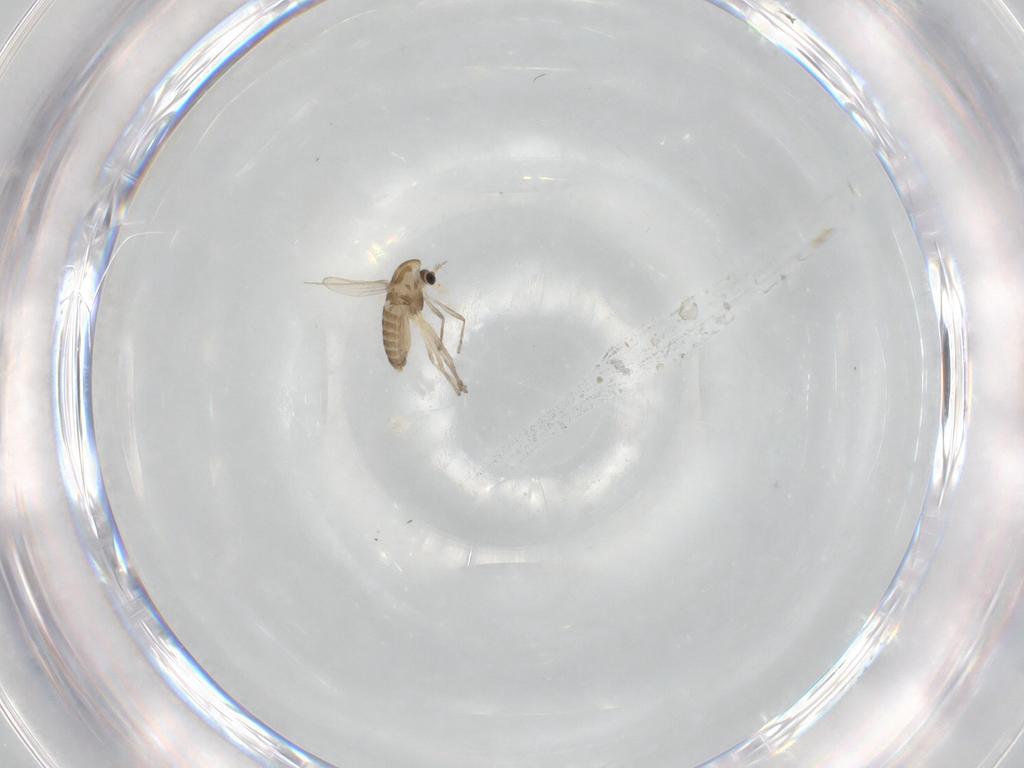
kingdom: Animalia
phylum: Arthropoda
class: Insecta
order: Diptera
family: Chironomidae
